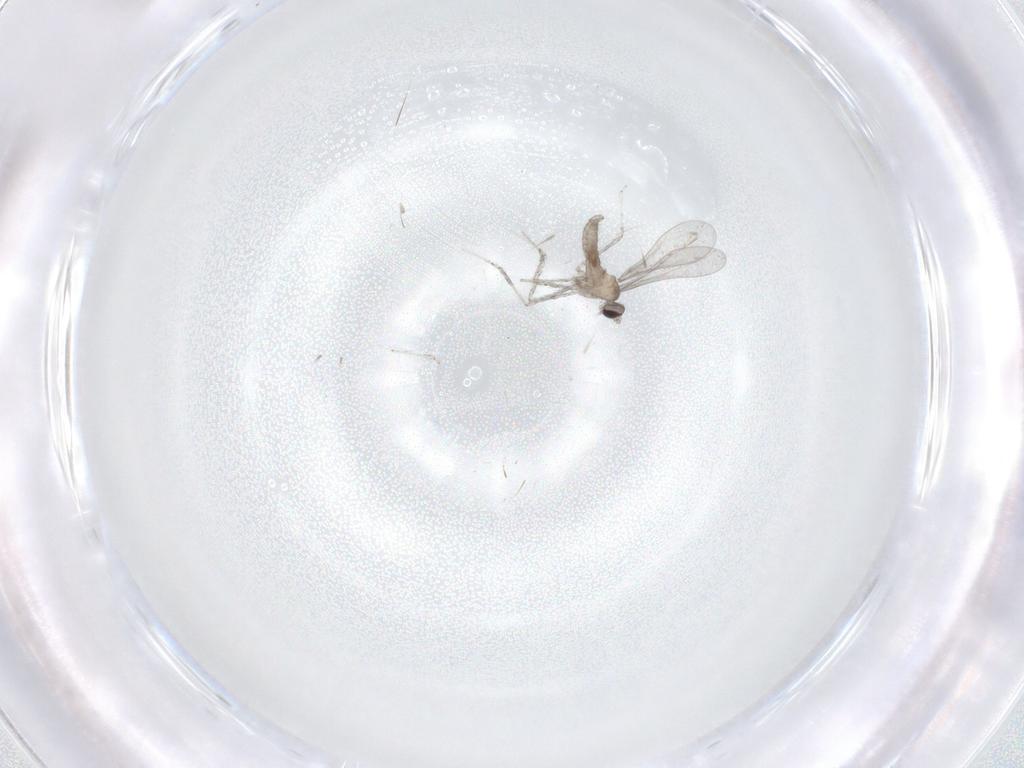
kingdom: Animalia
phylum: Arthropoda
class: Insecta
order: Diptera
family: Cecidomyiidae
